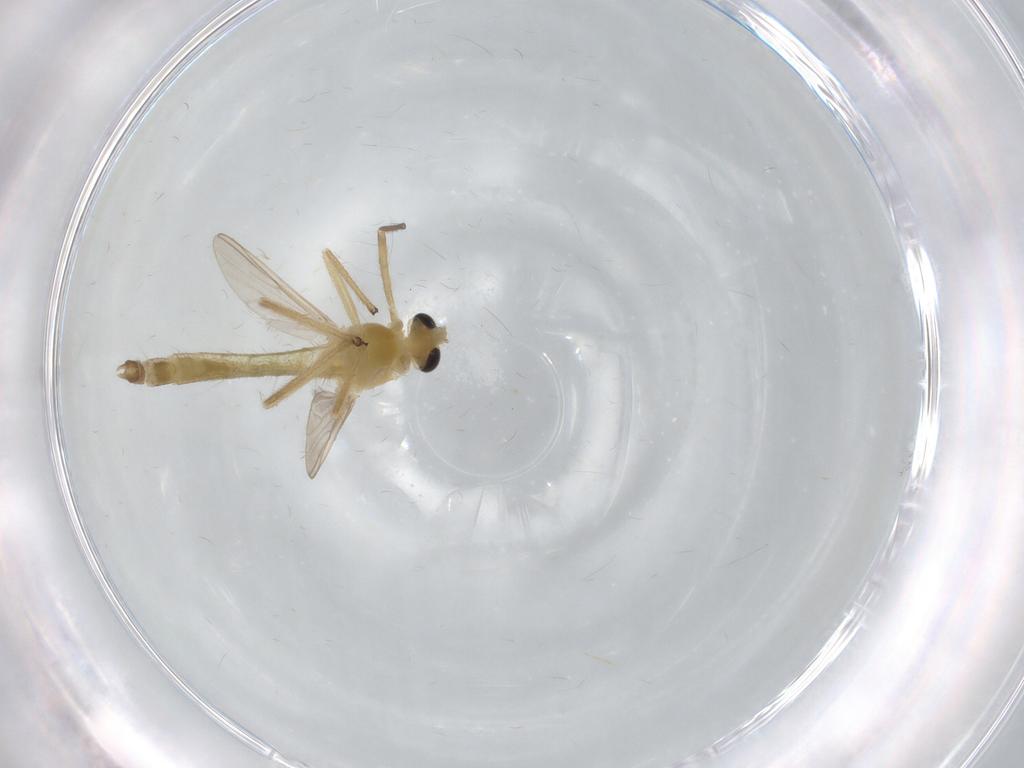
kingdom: Animalia
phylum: Arthropoda
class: Insecta
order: Diptera
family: Chironomidae
